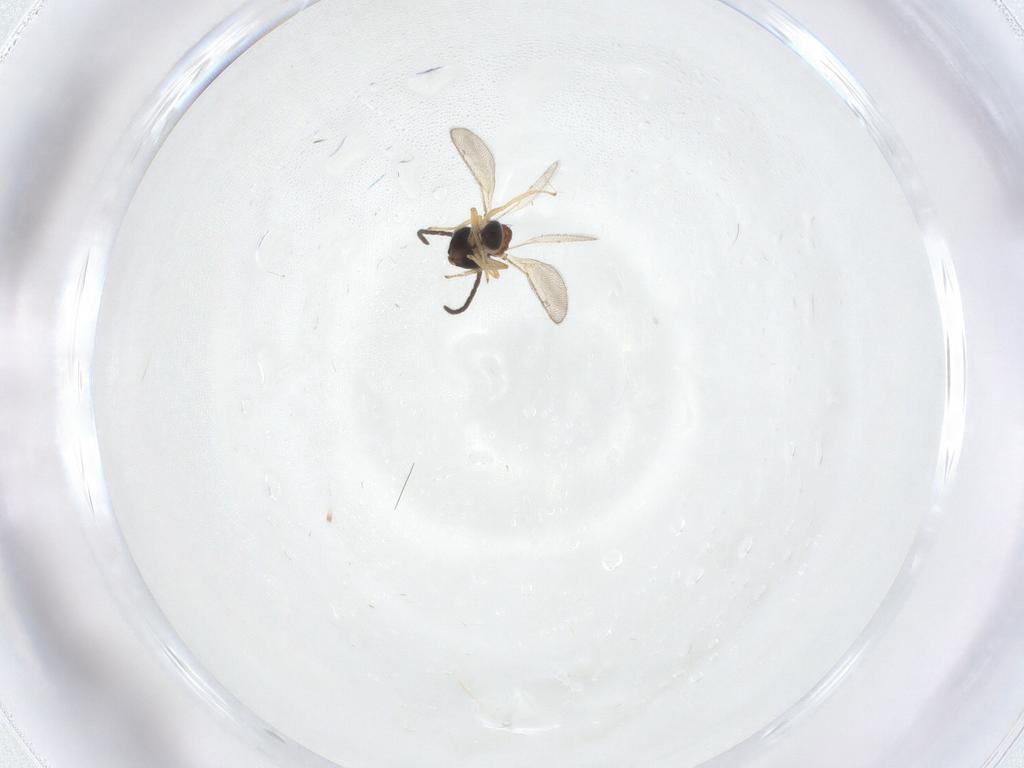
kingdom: Animalia
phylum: Arthropoda
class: Insecta
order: Hymenoptera
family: Diparidae
